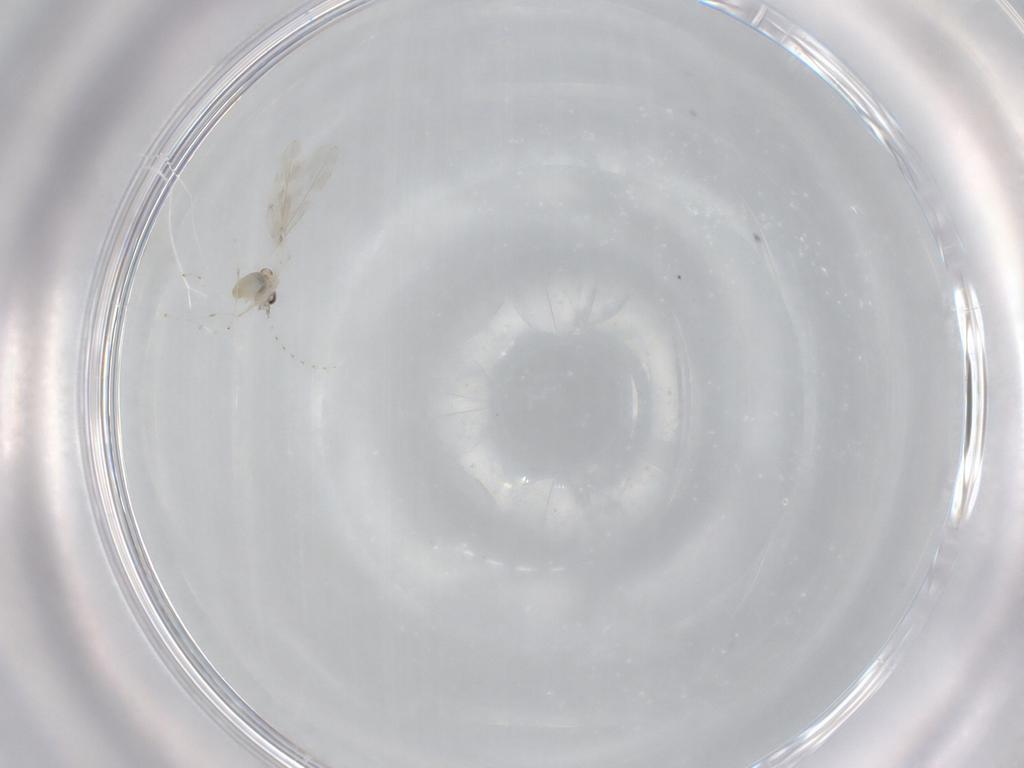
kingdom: Animalia
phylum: Arthropoda
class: Insecta
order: Diptera
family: Cecidomyiidae
